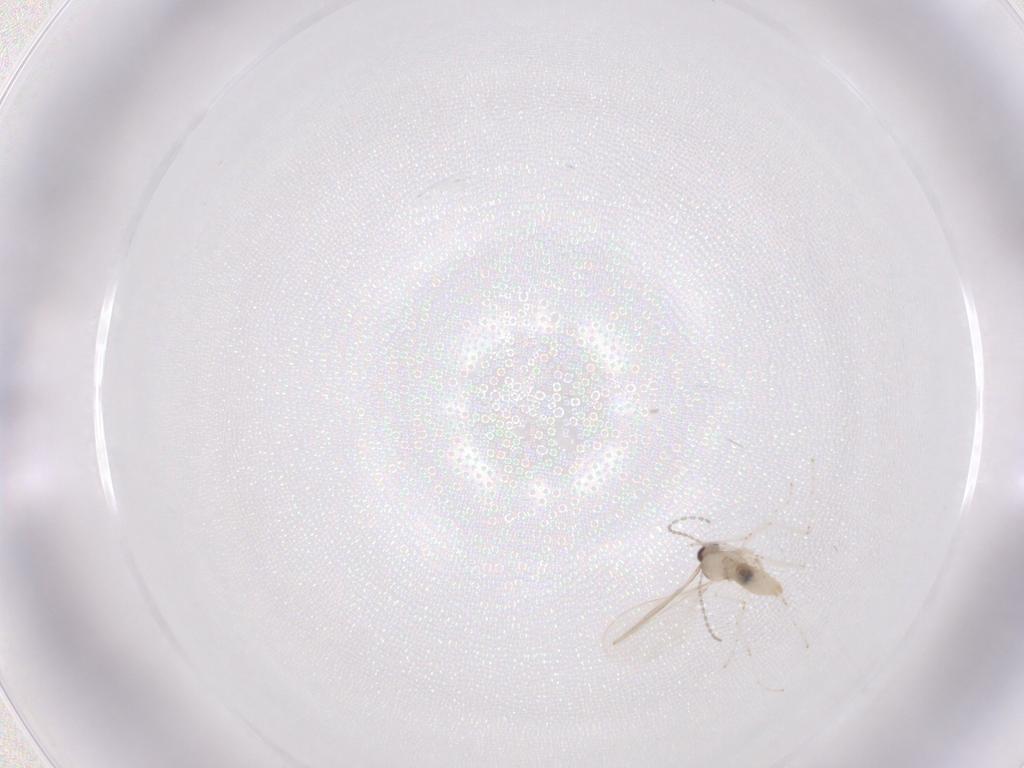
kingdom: Animalia
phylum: Arthropoda
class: Insecta
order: Diptera
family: Cecidomyiidae
